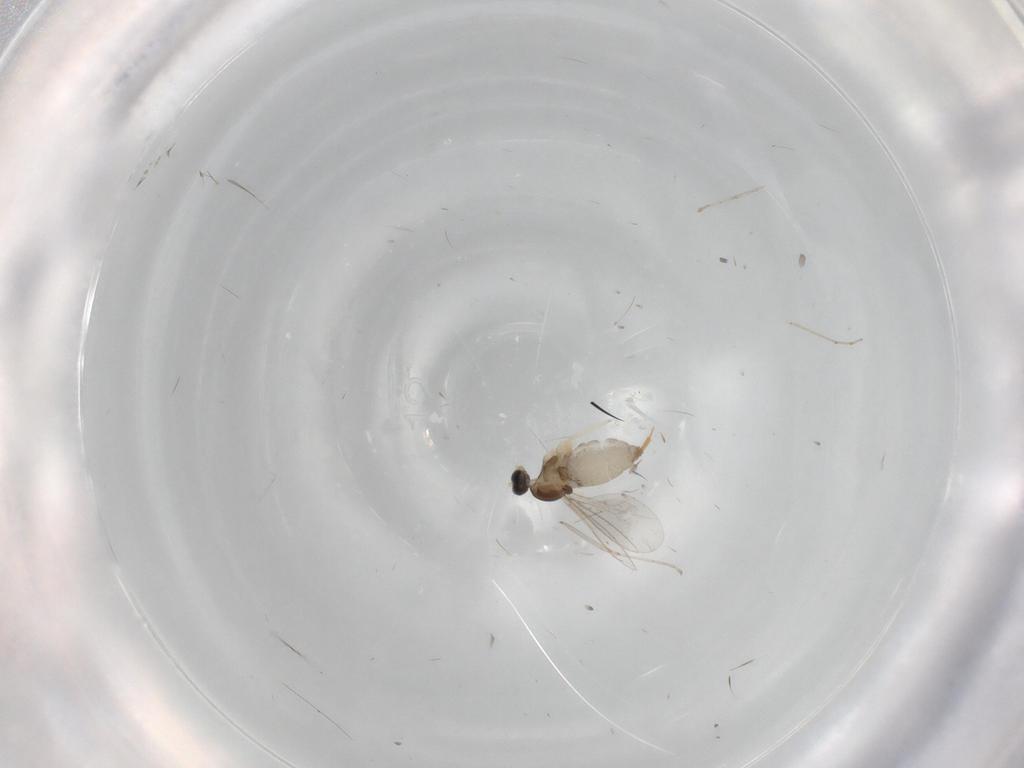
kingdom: Animalia
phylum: Arthropoda
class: Insecta
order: Diptera
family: Cecidomyiidae
